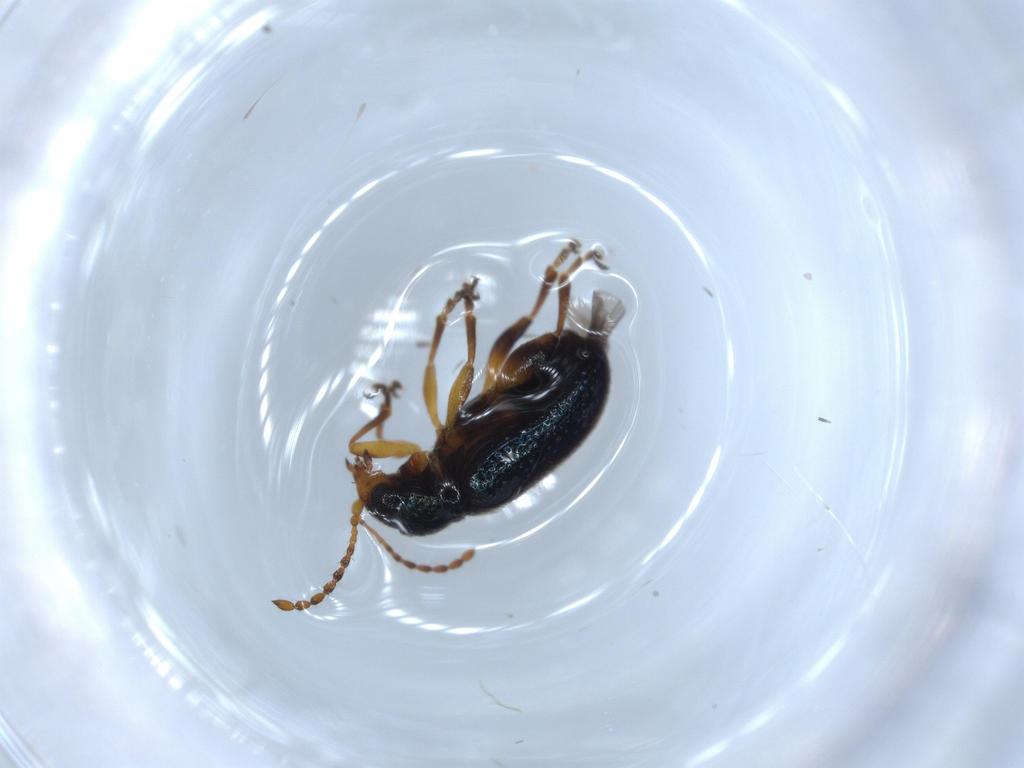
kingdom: Animalia
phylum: Arthropoda
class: Insecta
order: Coleoptera
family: Chrysomelidae
